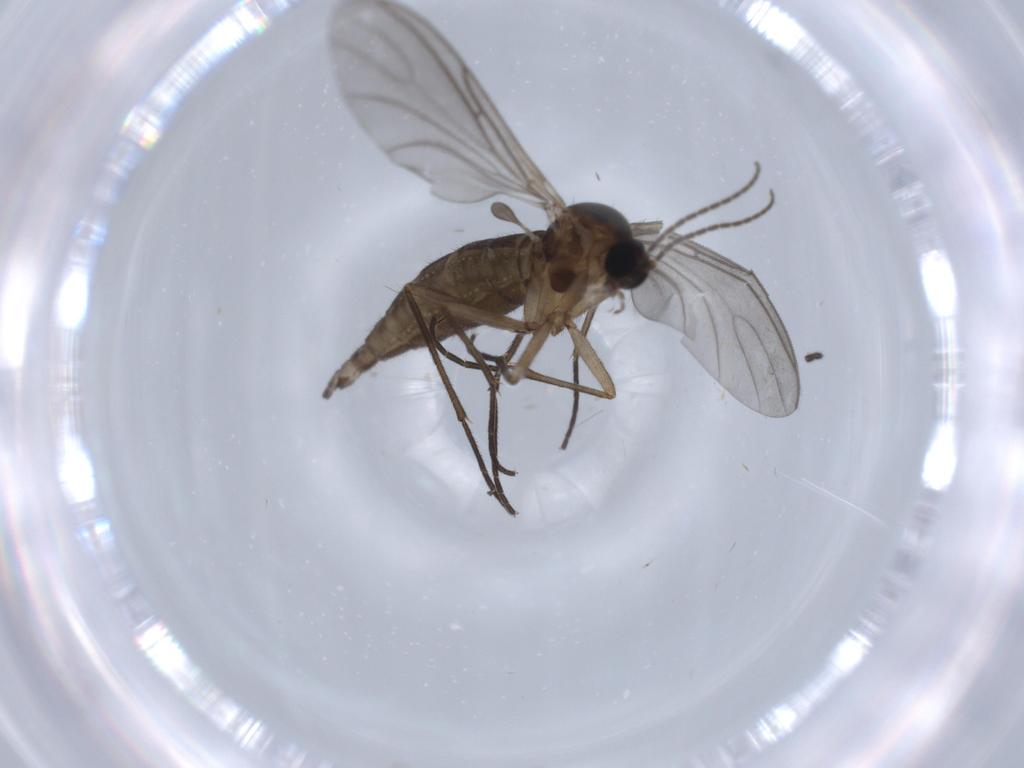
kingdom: Animalia
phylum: Arthropoda
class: Insecta
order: Diptera
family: Sciaridae
